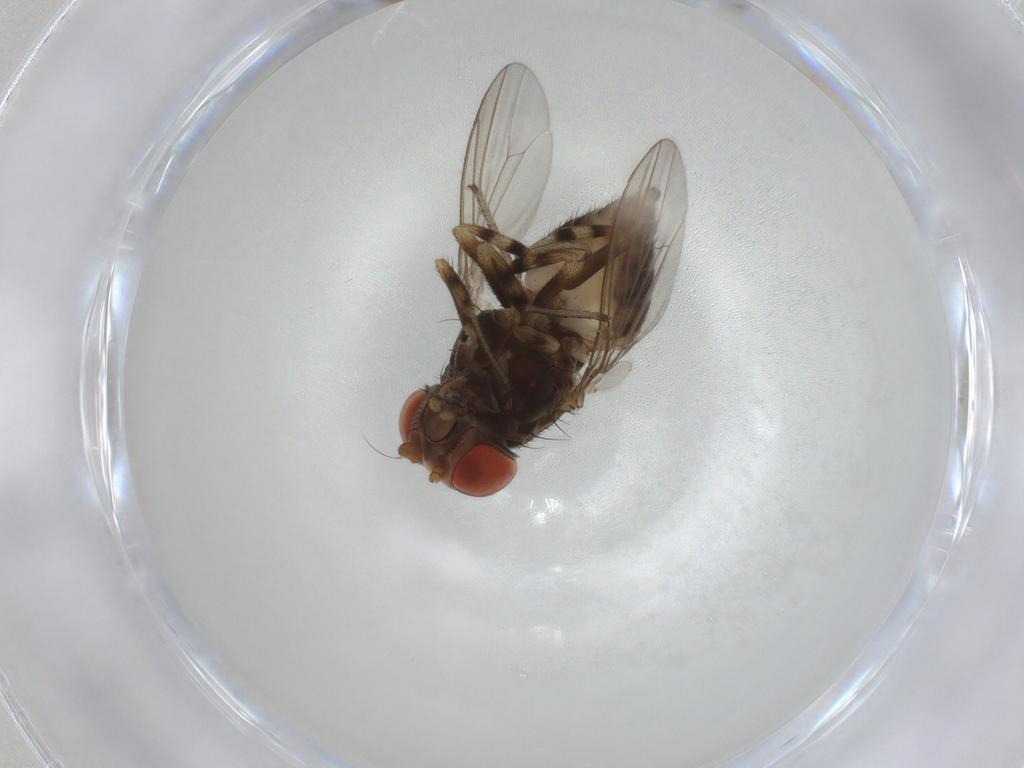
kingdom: Animalia
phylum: Arthropoda
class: Insecta
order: Diptera
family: Drosophilidae
